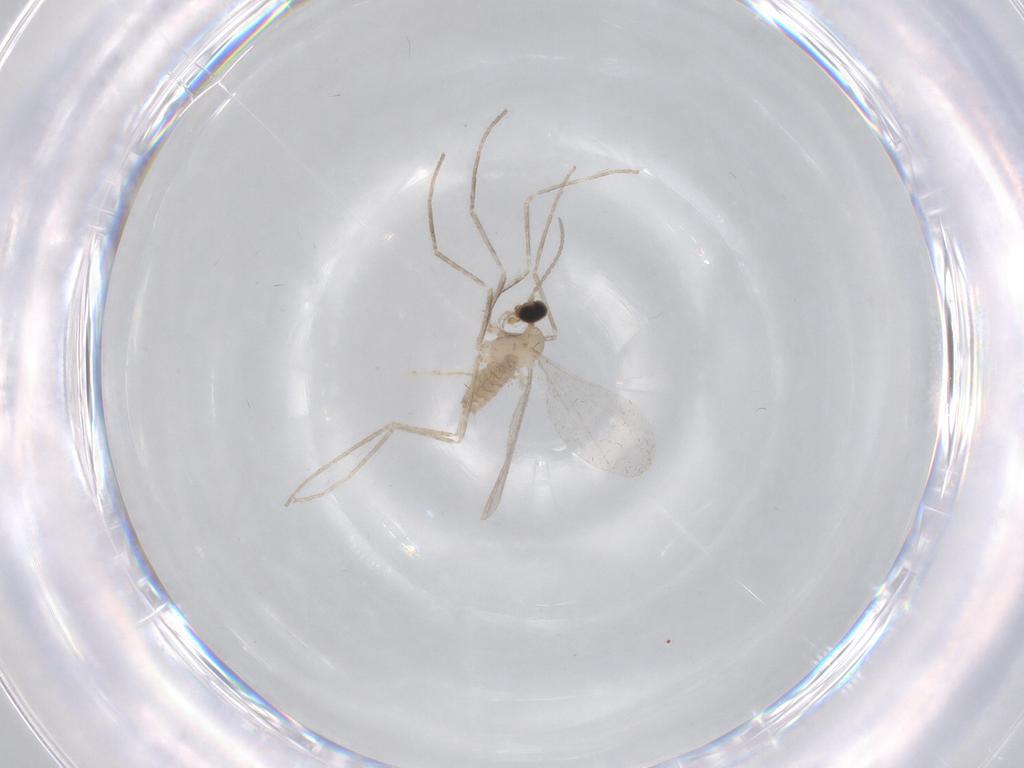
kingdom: Animalia
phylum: Arthropoda
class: Insecta
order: Diptera
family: Cecidomyiidae
